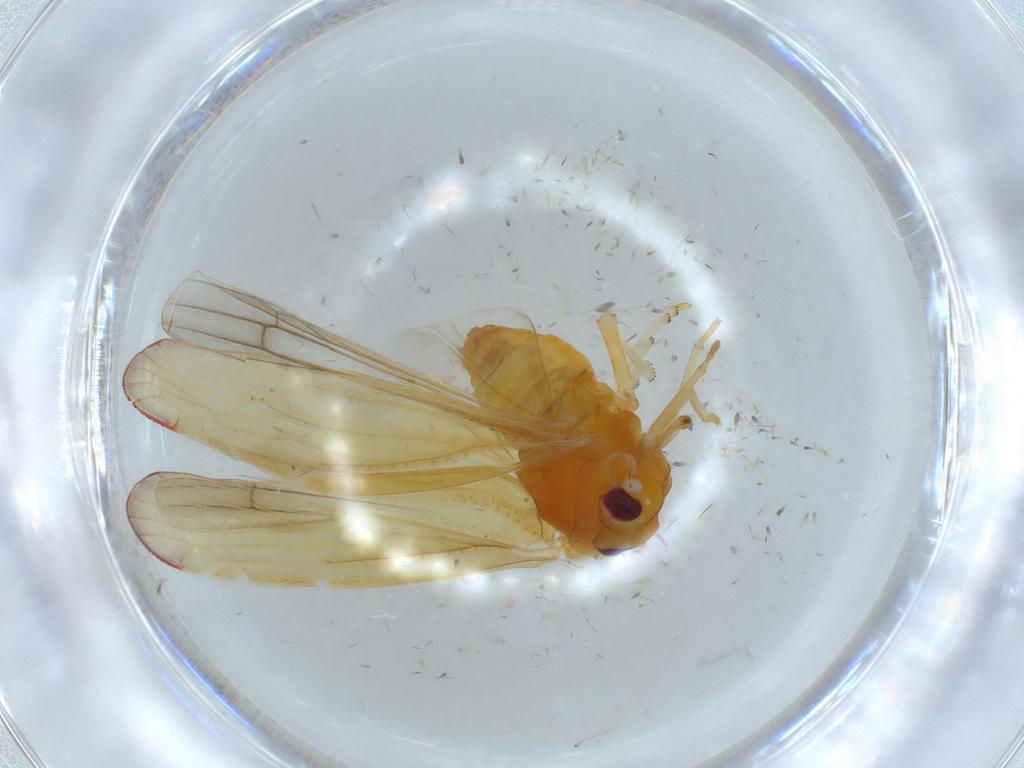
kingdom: Animalia
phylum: Arthropoda
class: Insecta
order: Hemiptera
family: Derbidae
